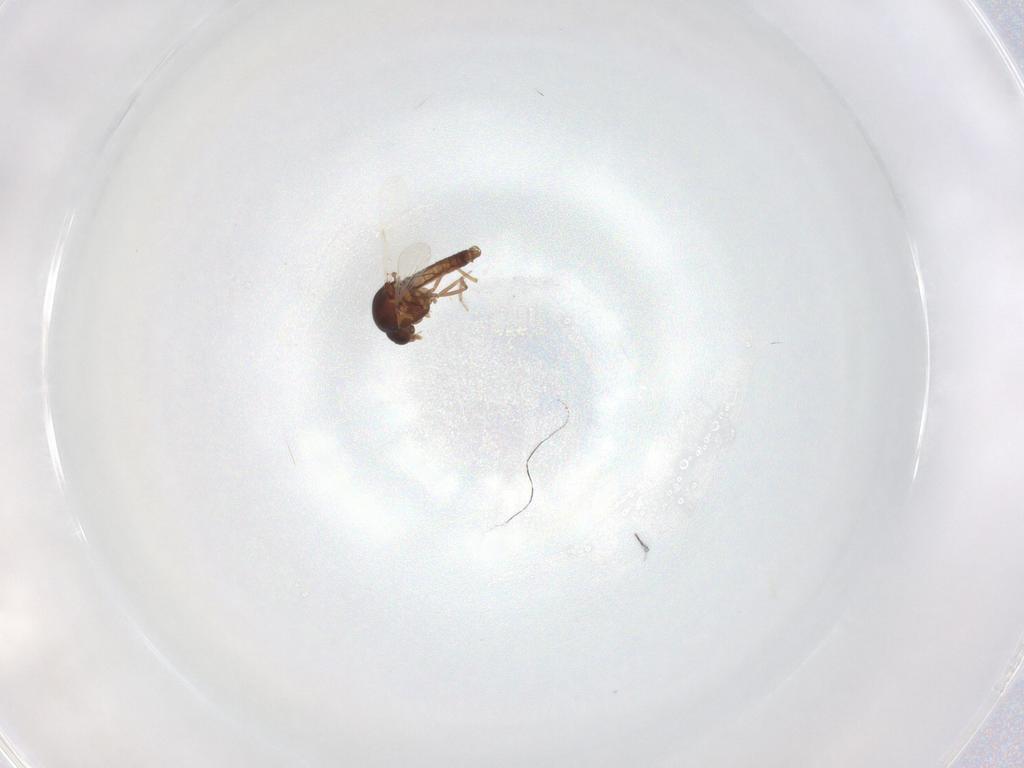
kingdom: Animalia
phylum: Arthropoda
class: Insecta
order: Diptera
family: Ceratopogonidae
